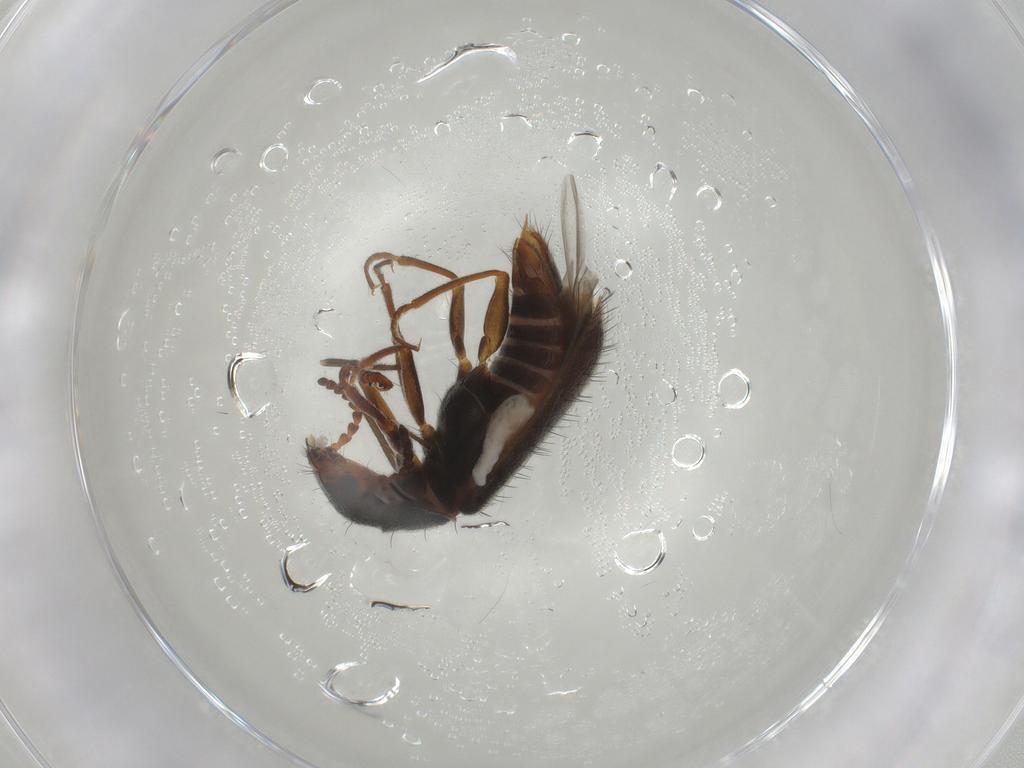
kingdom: Animalia
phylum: Arthropoda
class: Insecta
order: Coleoptera
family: Melyridae
